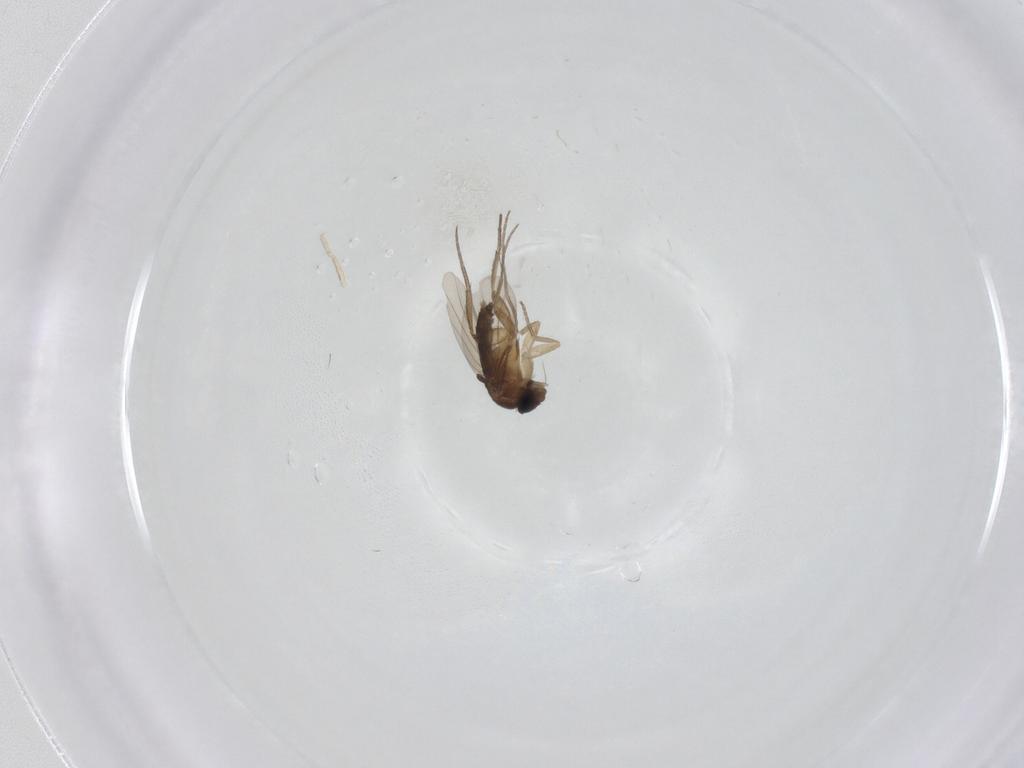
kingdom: Animalia
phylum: Arthropoda
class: Insecta
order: Diptera
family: Phoridae
